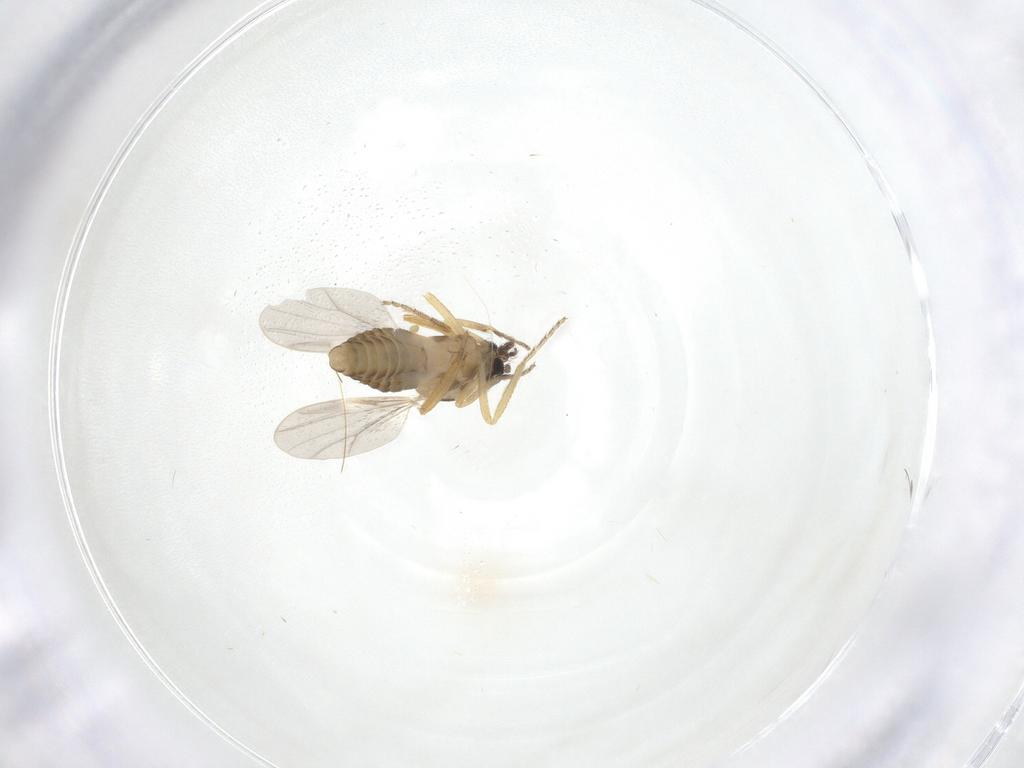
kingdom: Animalia
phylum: Arthropoda
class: Insecta
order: Diptera
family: Ceratopogonidae
